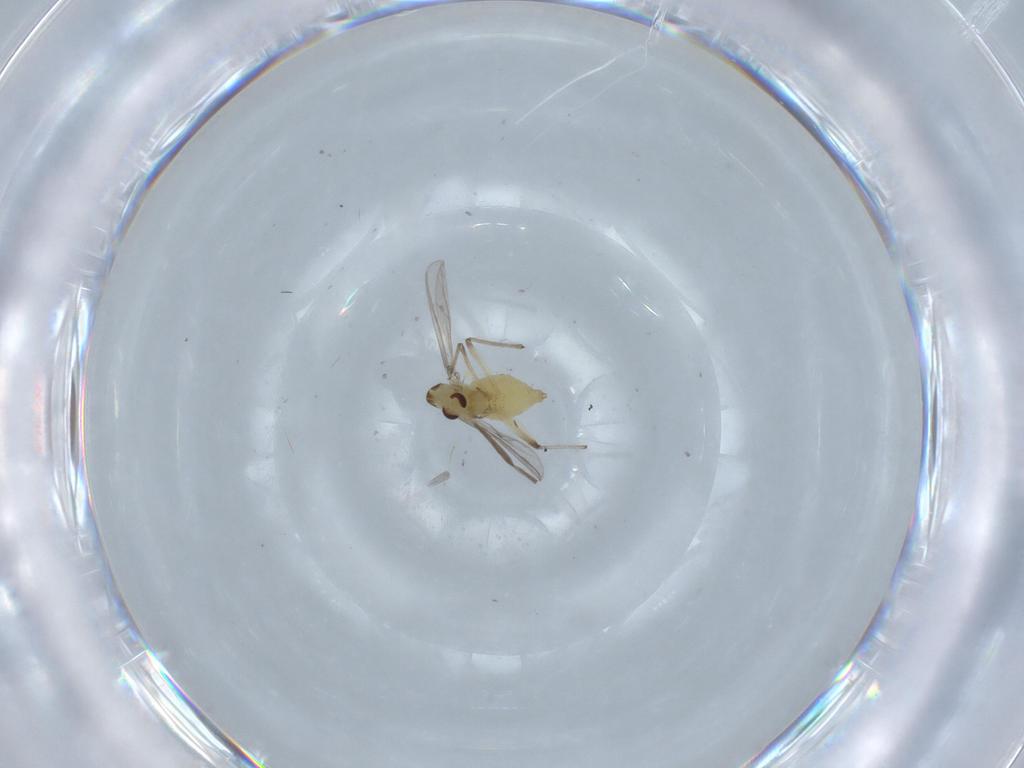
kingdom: Animalia
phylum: Arthropoda
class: Insecta
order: Diptera
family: Chironomidae
